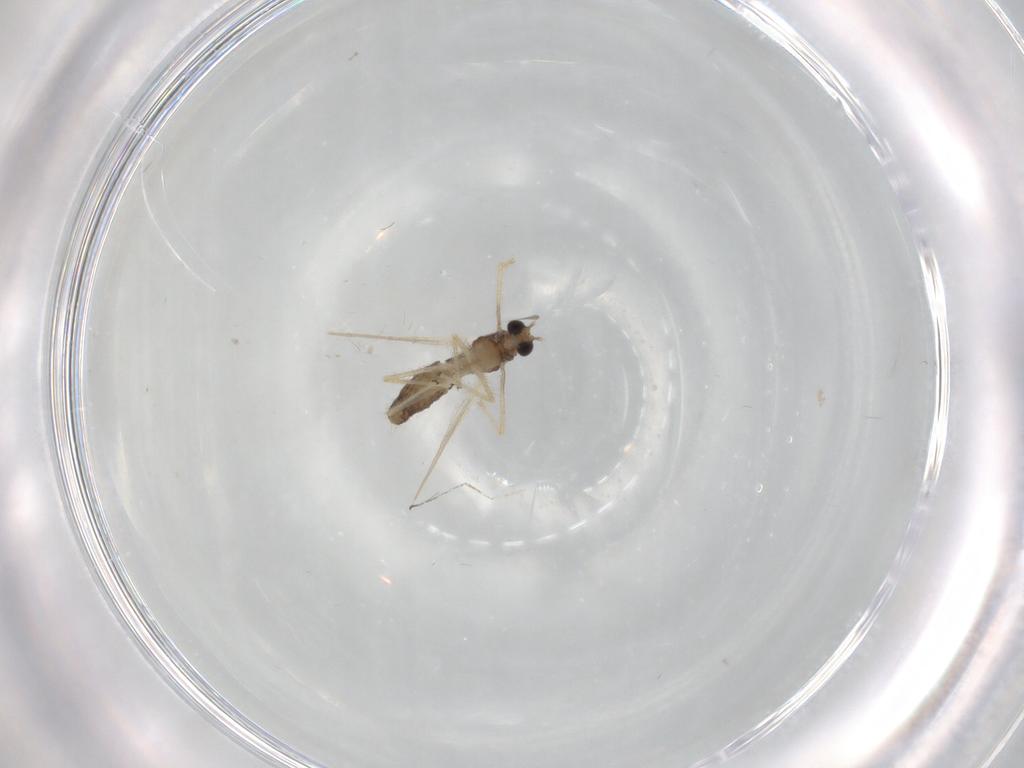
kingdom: Animalia
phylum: Arthropoda
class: Insecta
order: Diptera
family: Chironomidae
